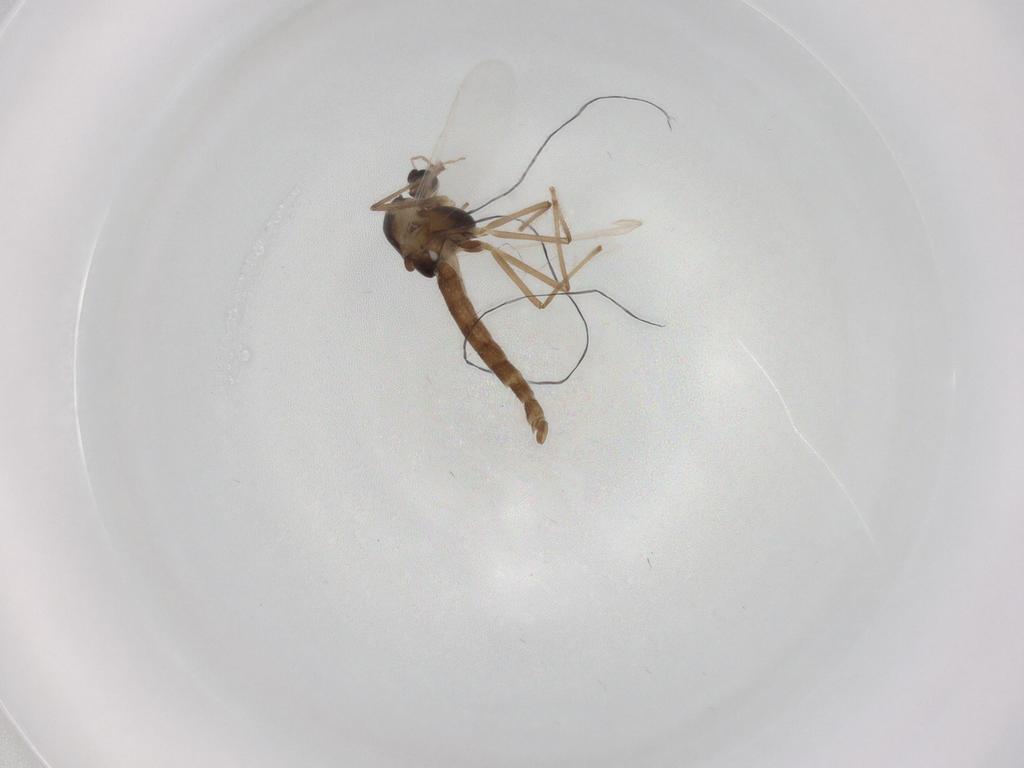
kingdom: Animalia
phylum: Arthropoda
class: Insecta
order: Diptera
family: Chironomidae
